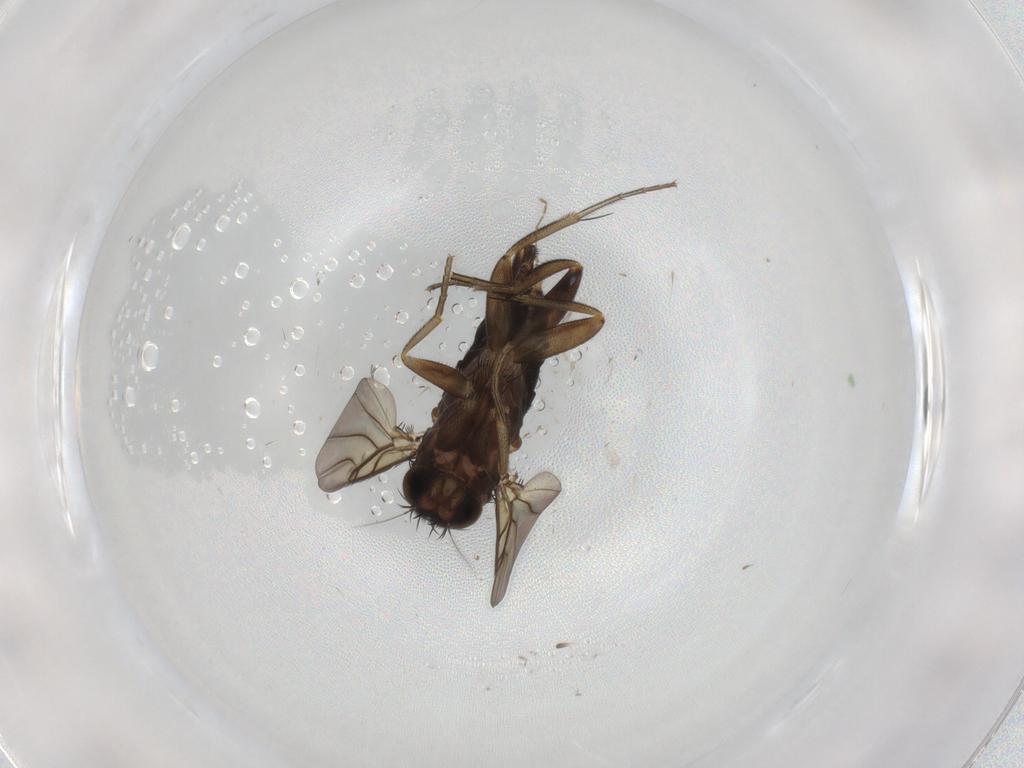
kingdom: Animalia
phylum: Arthropoda
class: Insecta
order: Diptera
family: Phoridae
